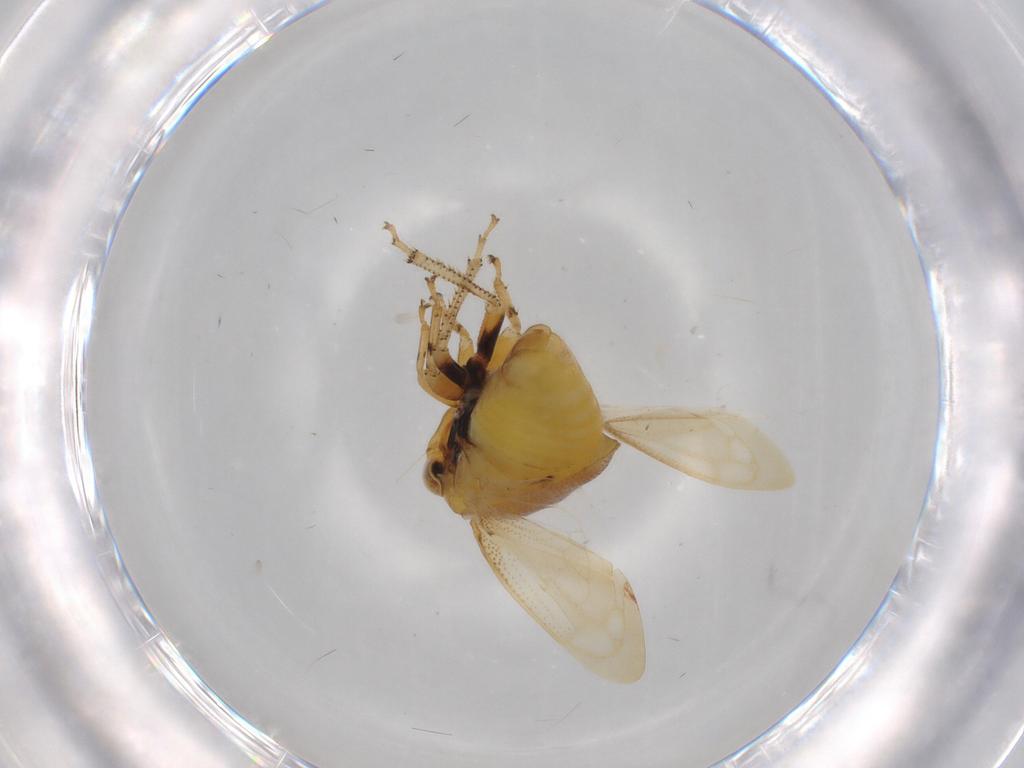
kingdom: Animalia
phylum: Arthropoda
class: Insecta
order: Hemiptera
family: Membracidae
